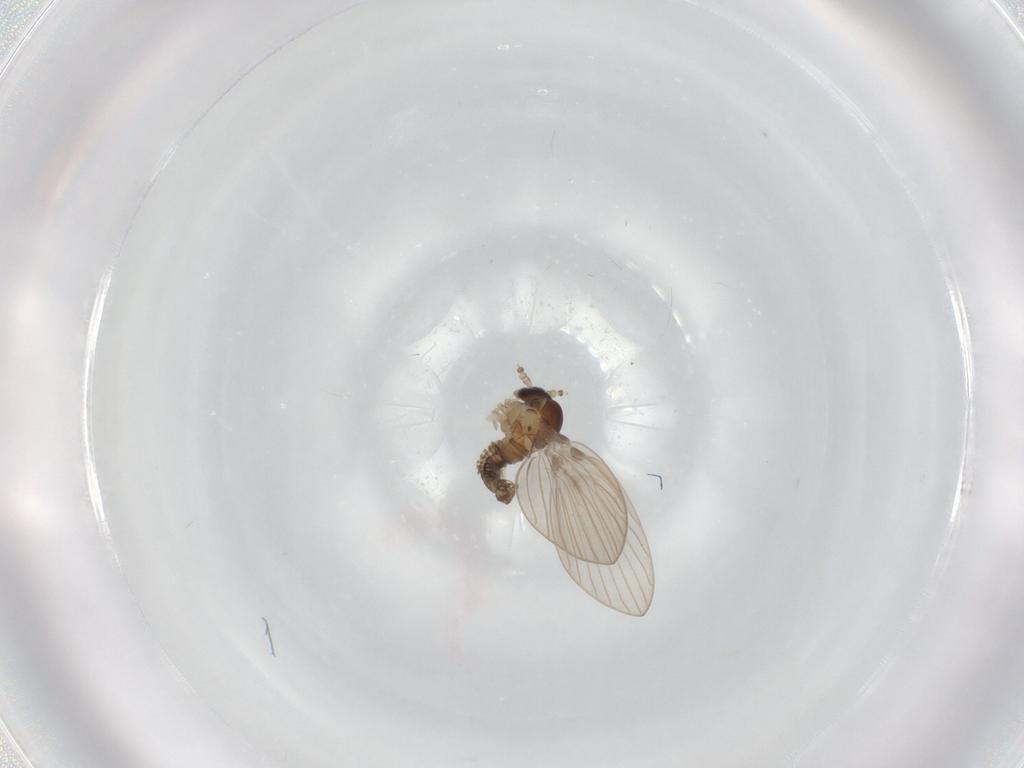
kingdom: Animalia
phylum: Arthropoda
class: Insecta
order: Diptera
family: Psychodidae
